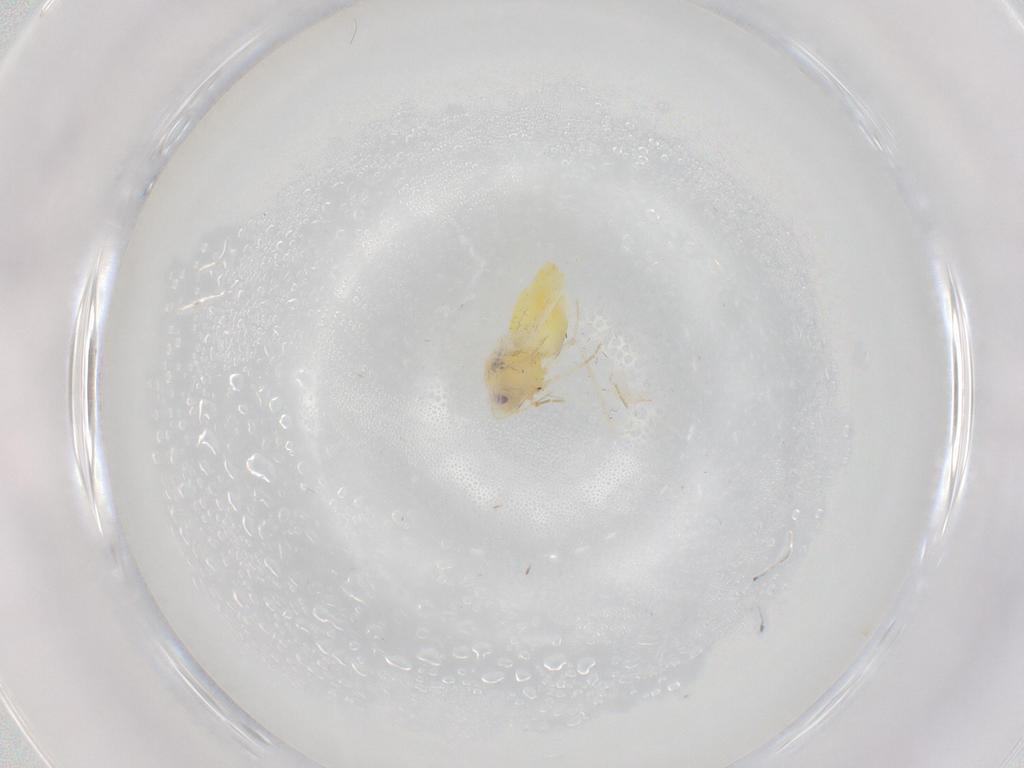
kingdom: Animalia
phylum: Arthropoda
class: Insecta
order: Hemiptera
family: Aleyrodidae
